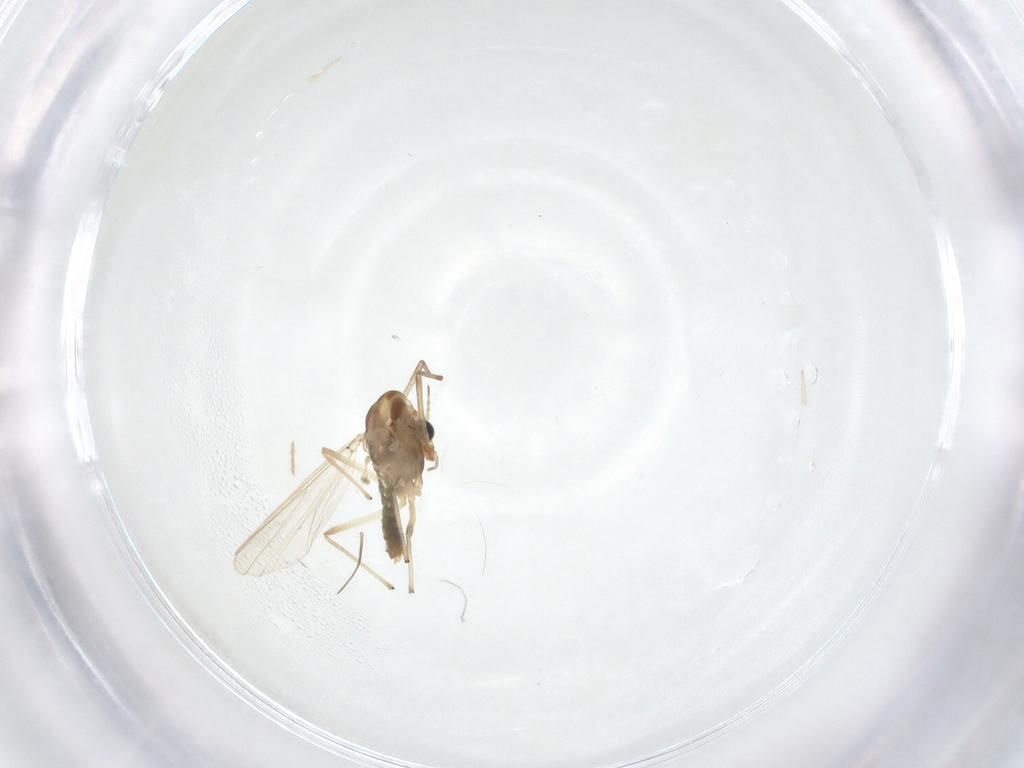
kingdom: Animalia
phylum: Arthropoda
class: Insecta
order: Diptera
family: Chironomidae
